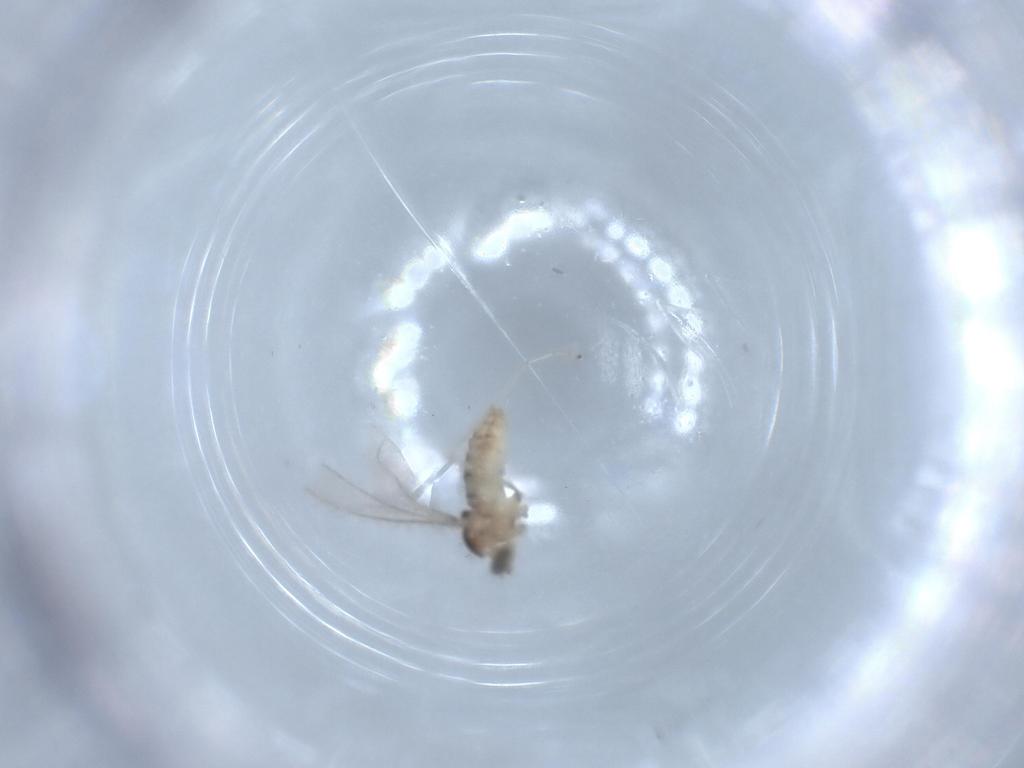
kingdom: Animalia
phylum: Arthropoda
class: Insecta
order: Diptera
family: Cecidomyiidae
